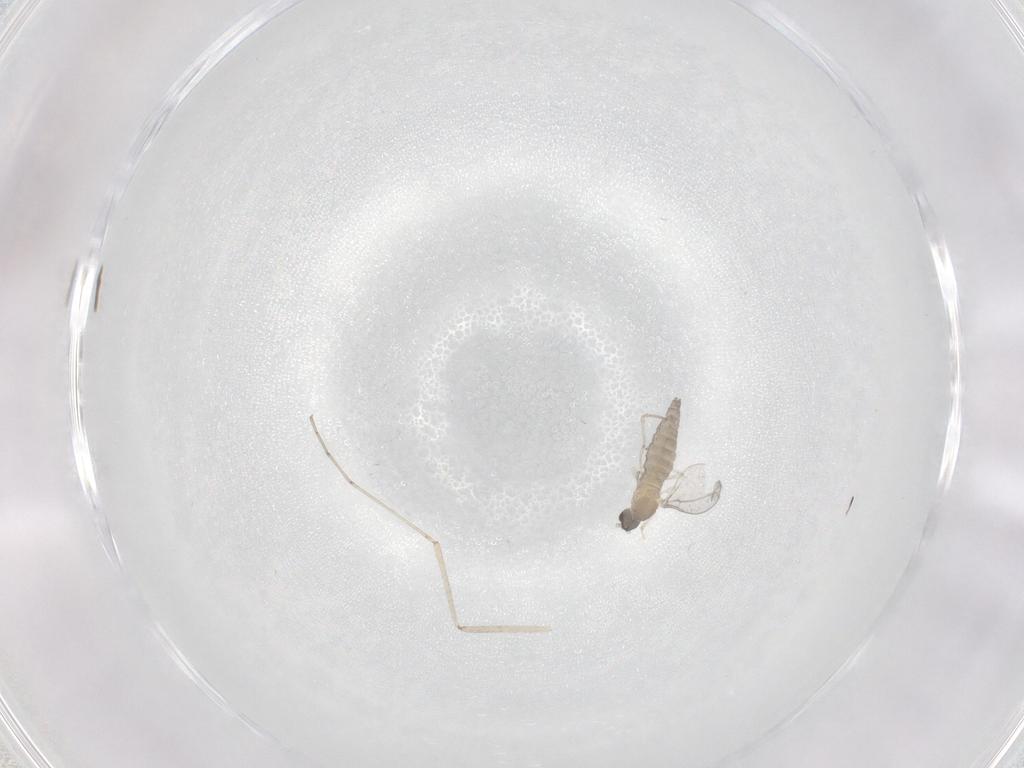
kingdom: Animalia
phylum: Arthropoda
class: Insecta
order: Diptera
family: Cecidomyiidae
